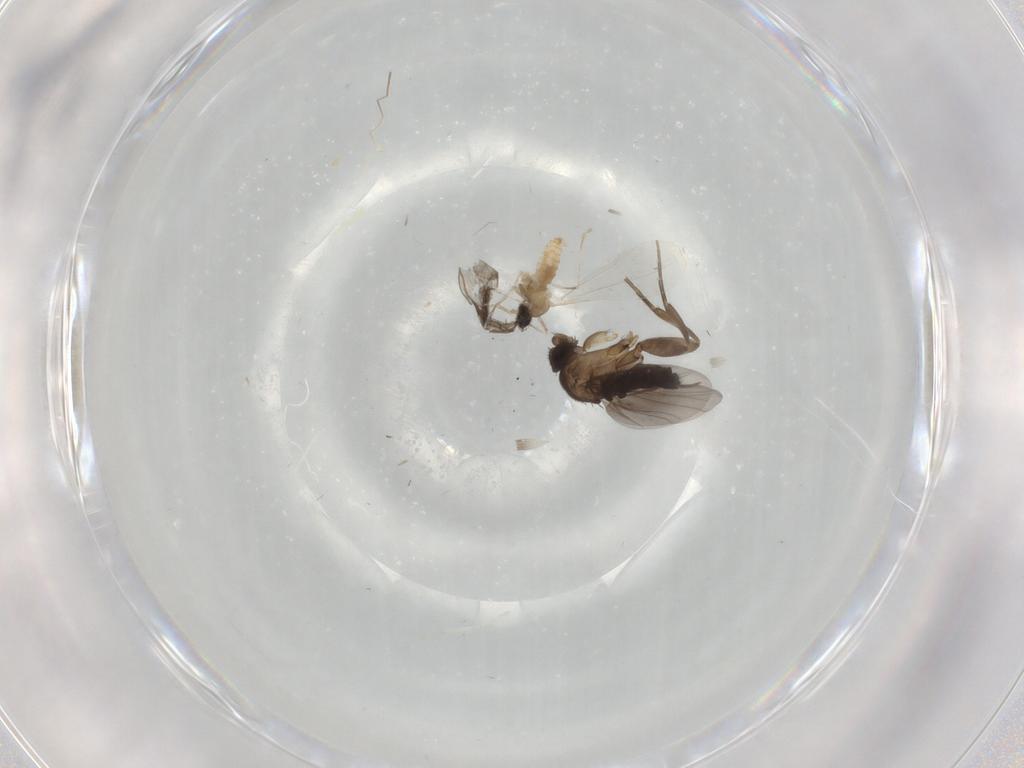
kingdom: Animalia
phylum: Arthropoda
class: Insecta
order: Diptera
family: Phoridae
